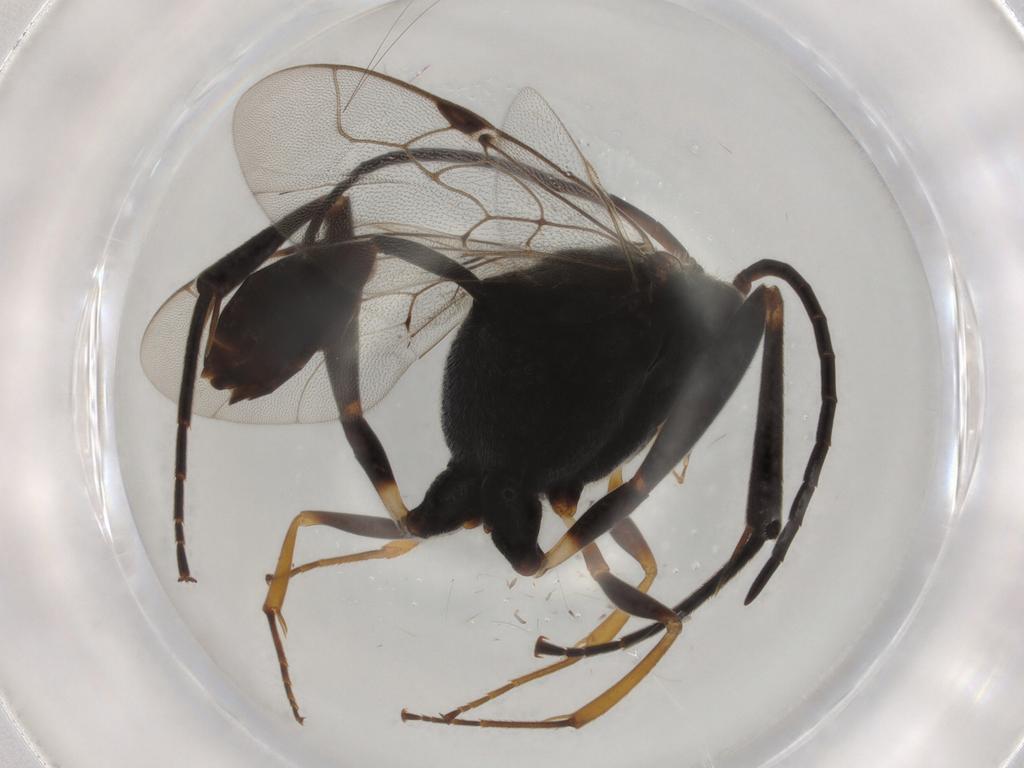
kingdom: Animalia
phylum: Arthropoda
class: Insecta
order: Hymenoptera
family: Evaniidae
